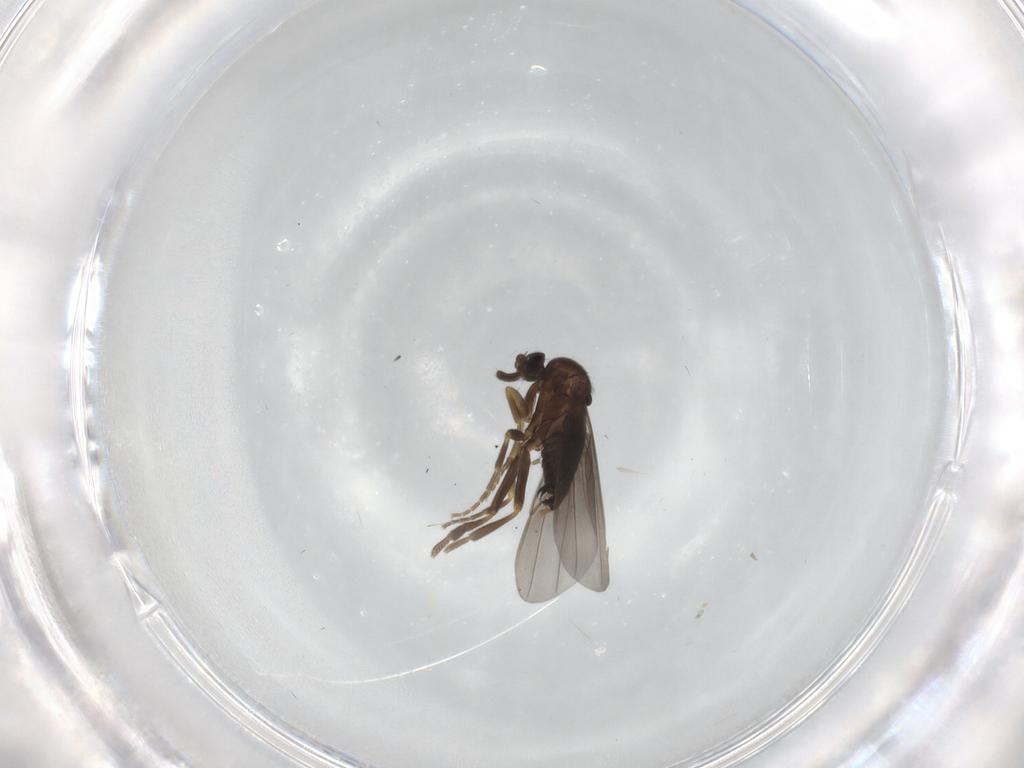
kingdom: Animalia
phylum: Arthropoda
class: Insecta
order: Diptera
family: Phoridae
